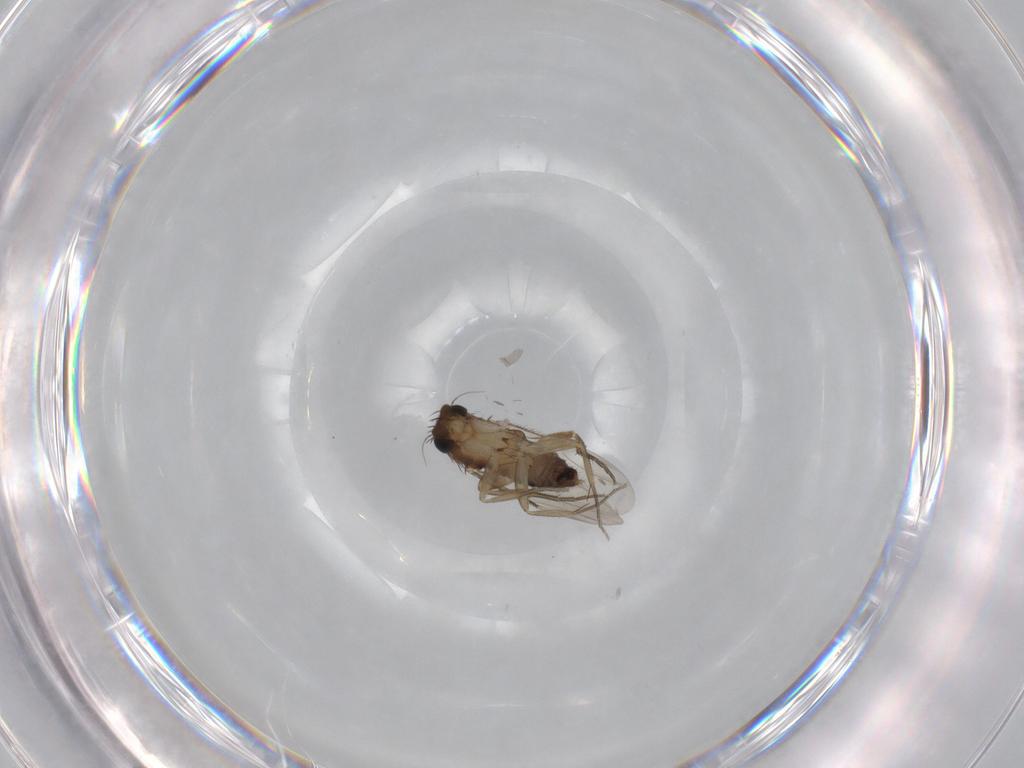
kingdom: Animalia
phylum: Arthropoda
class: Insecta
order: Diptera
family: Phoridae
